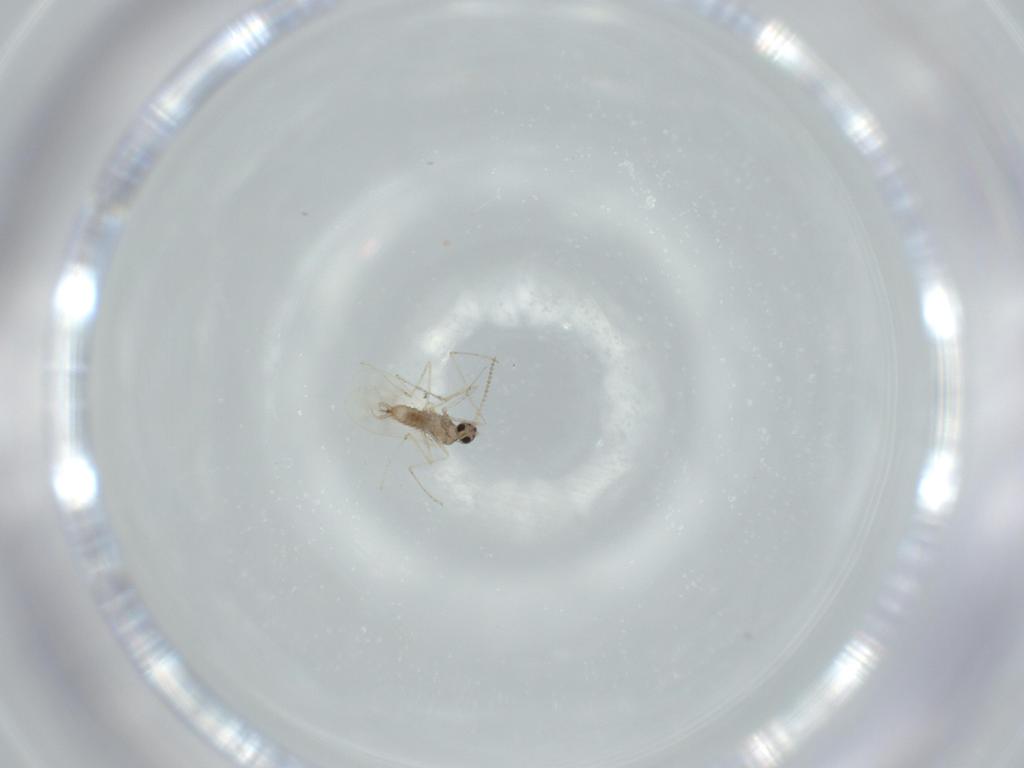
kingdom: Animalia
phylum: Arthropoda
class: Insecta
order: Diptera
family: Cecidomyiidae
